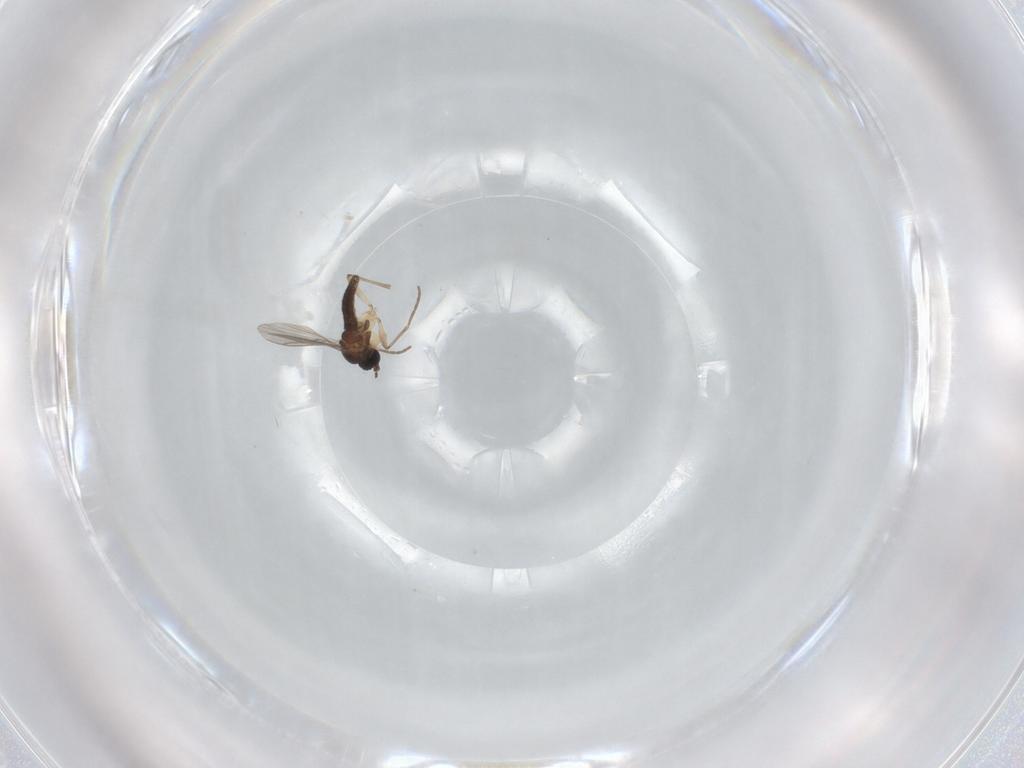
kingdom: Animalia
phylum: Arthropoda
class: Insecta
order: Diptera
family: Sciaridae
